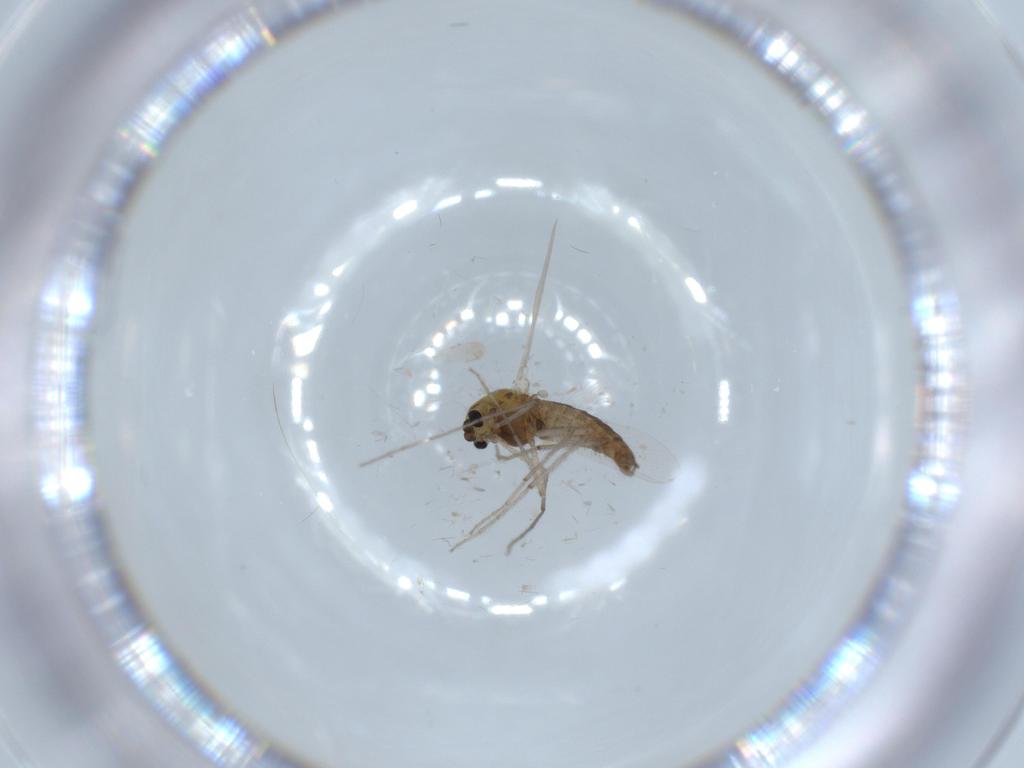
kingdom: Animalia
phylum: Arthropoda
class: Insecta
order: Diptera
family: Chironomidae
